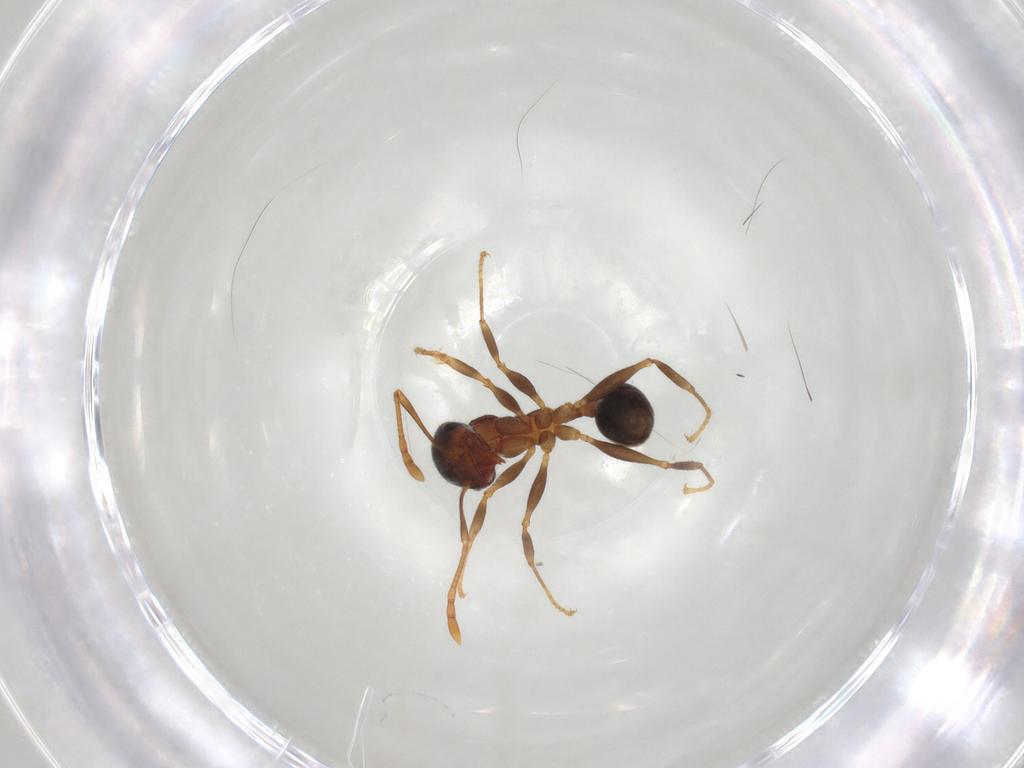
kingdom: Animalia
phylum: Arthropoda
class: Insecta
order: Hymenoptera
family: Formicidae
